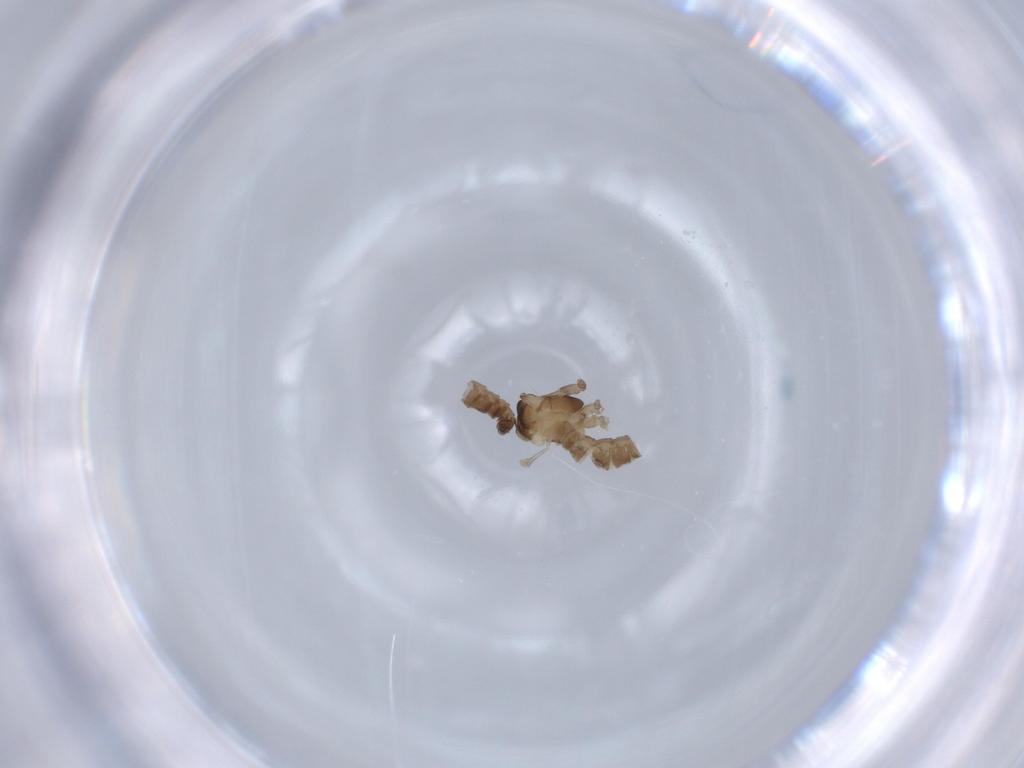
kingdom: Animalia
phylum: Arthropoda
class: Insecta
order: Diptera
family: Cecidomyiidae
